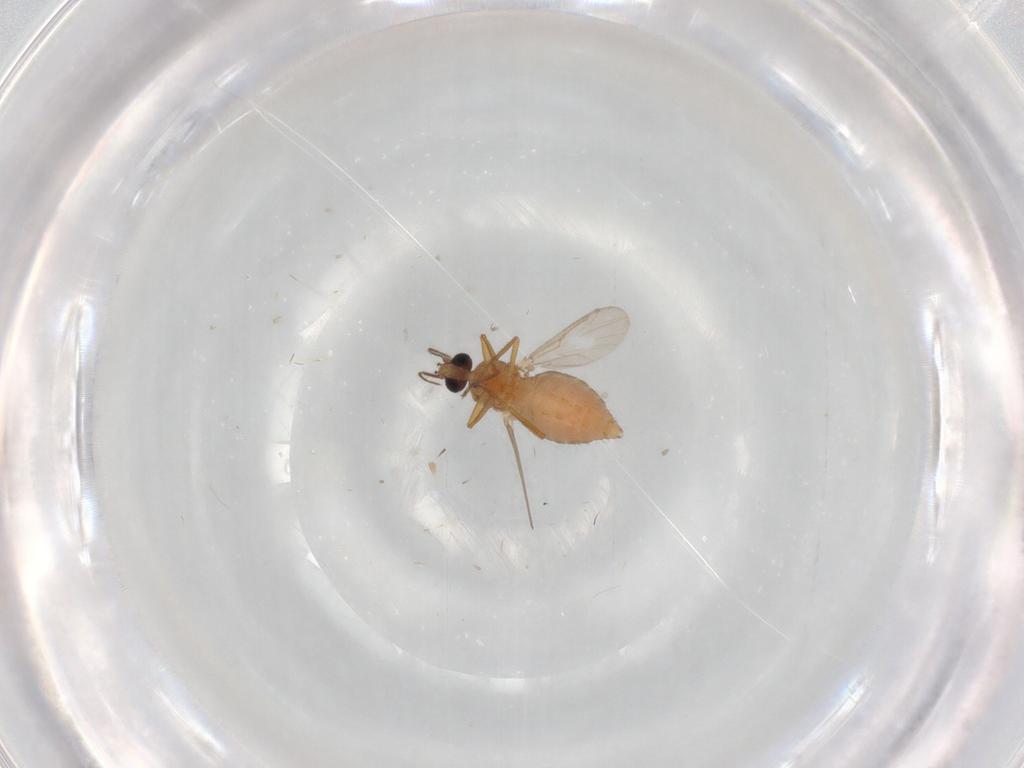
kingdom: Animalia
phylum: Arthropoda
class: Insecta
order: Diptera
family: Ceratopogonidae
